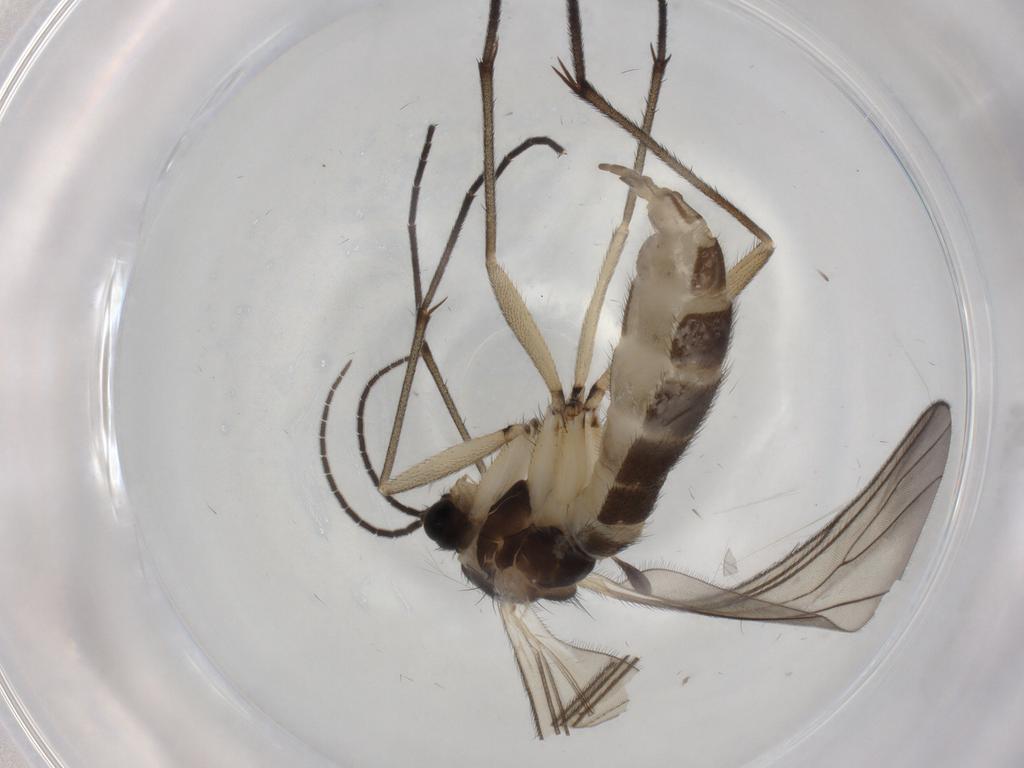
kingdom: Animalia
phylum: Arthropoda
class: Insecta
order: Diptera
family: Sciaridae
